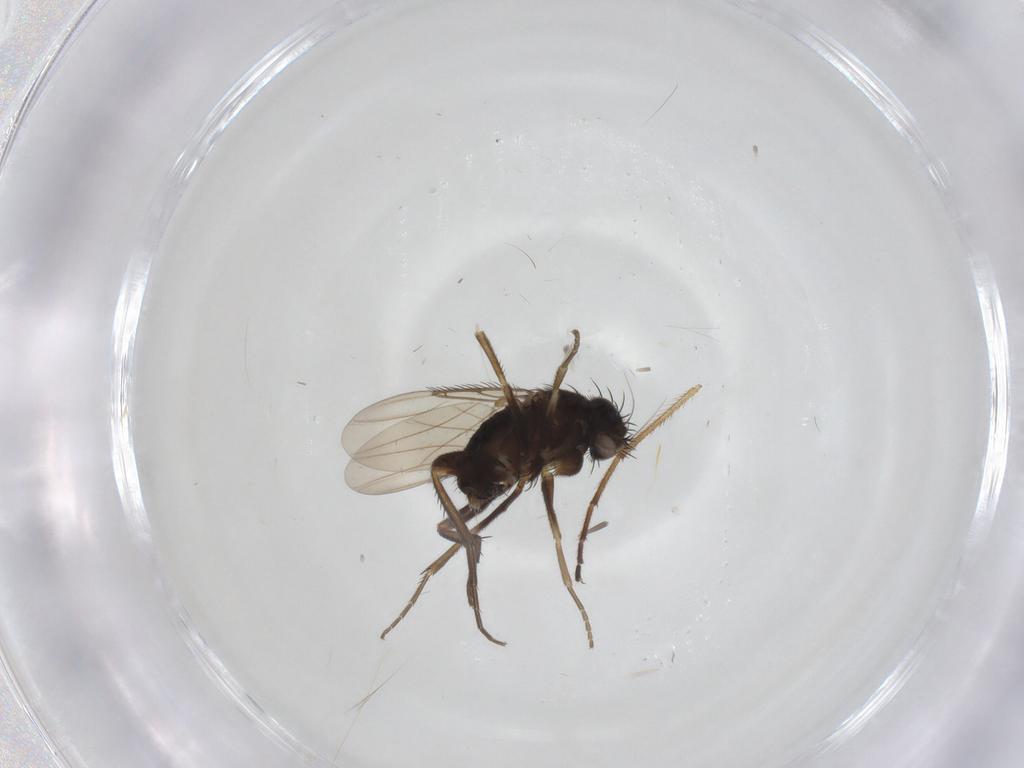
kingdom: Animalia
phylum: Arthropoda
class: Insecta
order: Diptera
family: Phoridae
